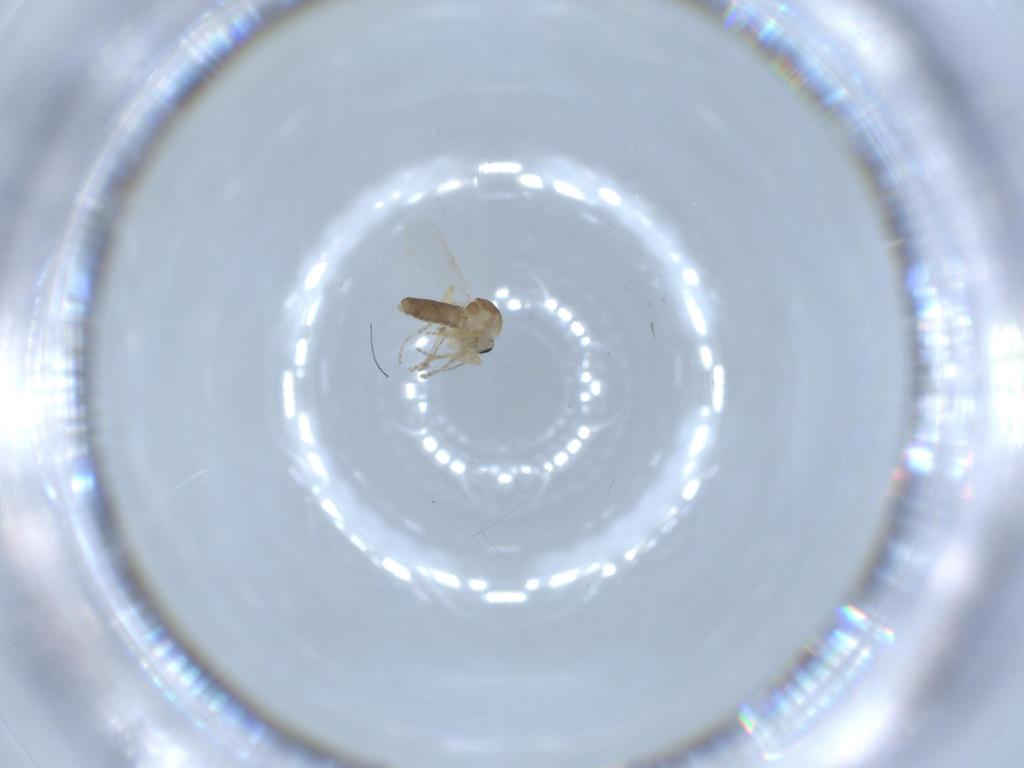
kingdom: Animalia
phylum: Arthropoda
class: Insecta
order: Diptera
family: Ceratopogonidae
